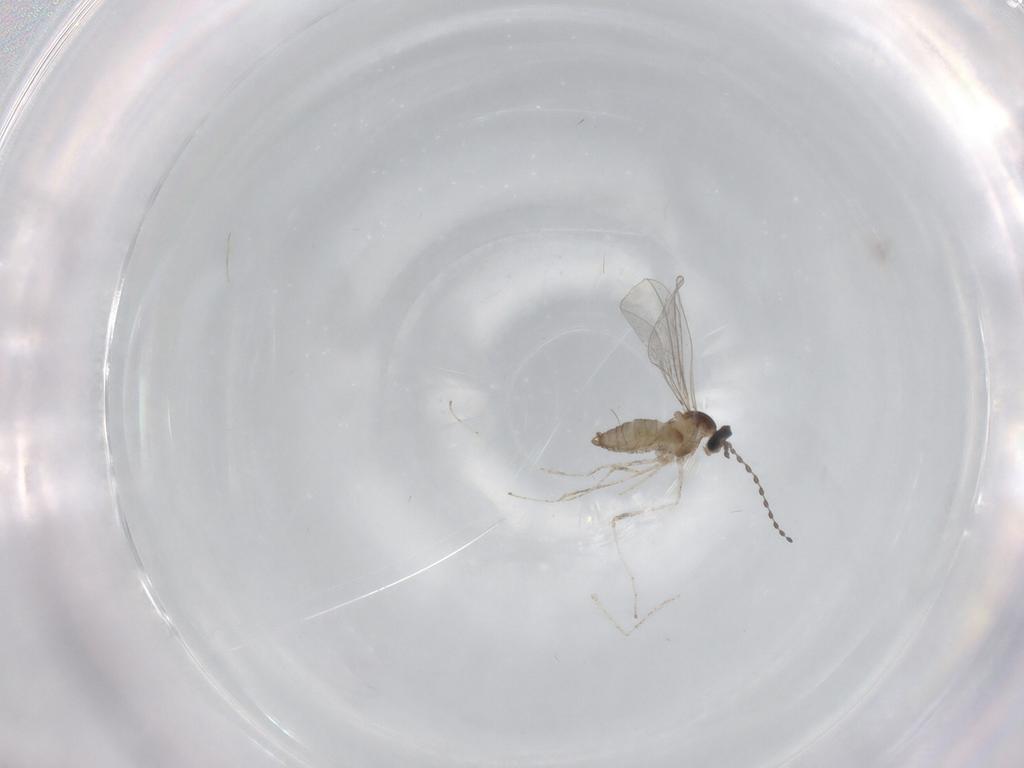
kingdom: Animalia
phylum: Arthropoda
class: Insecta
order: Diptera
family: Cecidomyiidae
